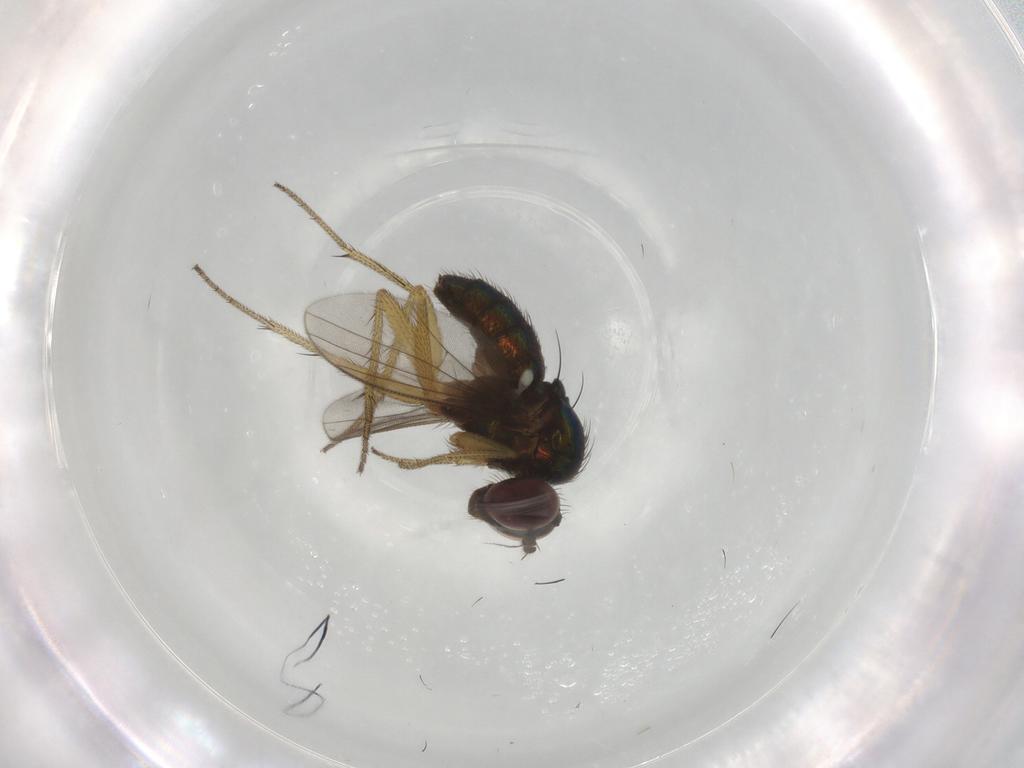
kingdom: Animalia
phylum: Arthropoda
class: Insecta
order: Diptera
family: Dolichopodidae
